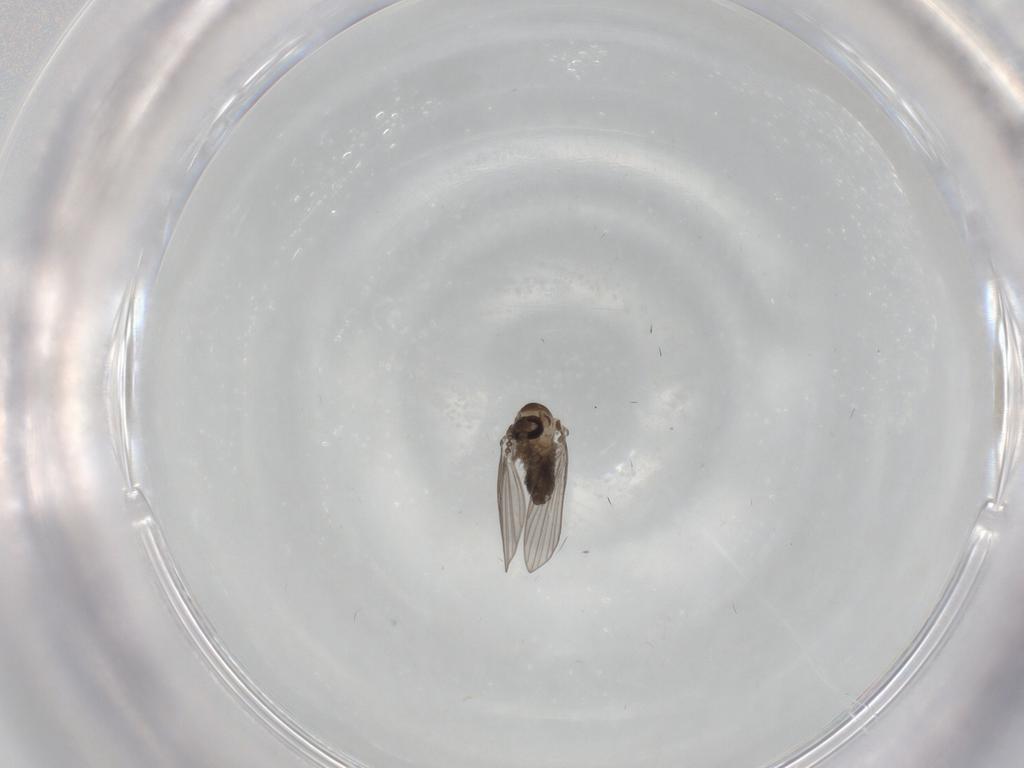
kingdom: Animalia
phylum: Arthropoda
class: Insecta
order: Diptera
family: Psychodidae
